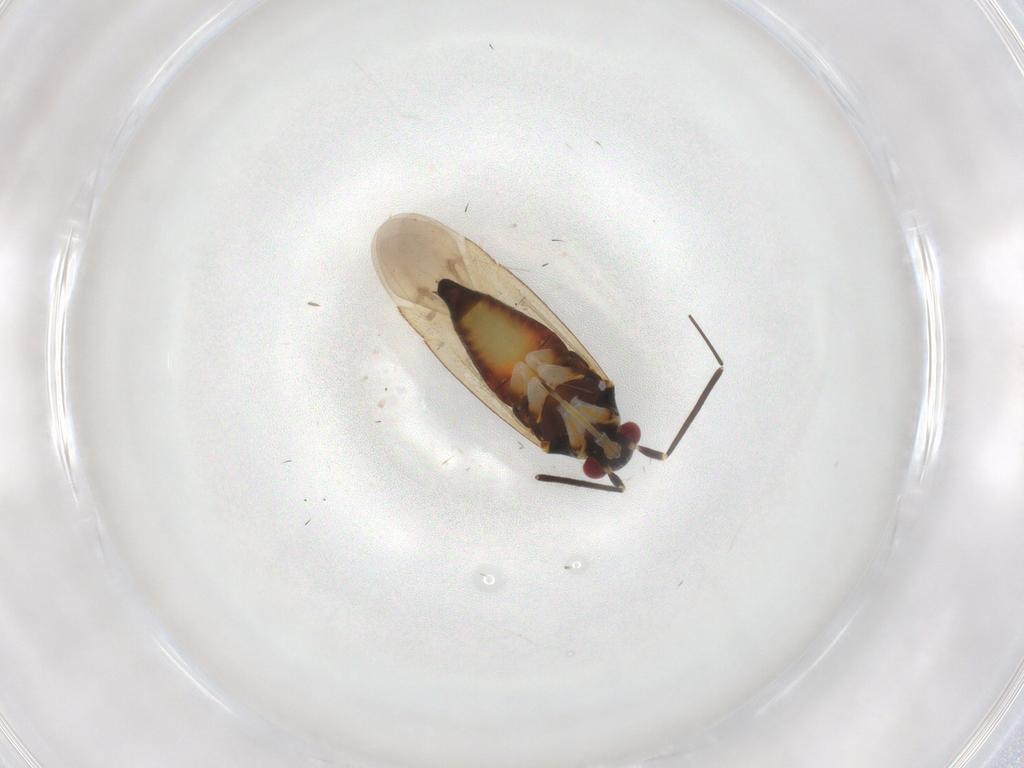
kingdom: Animalia
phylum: Arthropoda
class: Insecta
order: Hemiptera
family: Miridae
